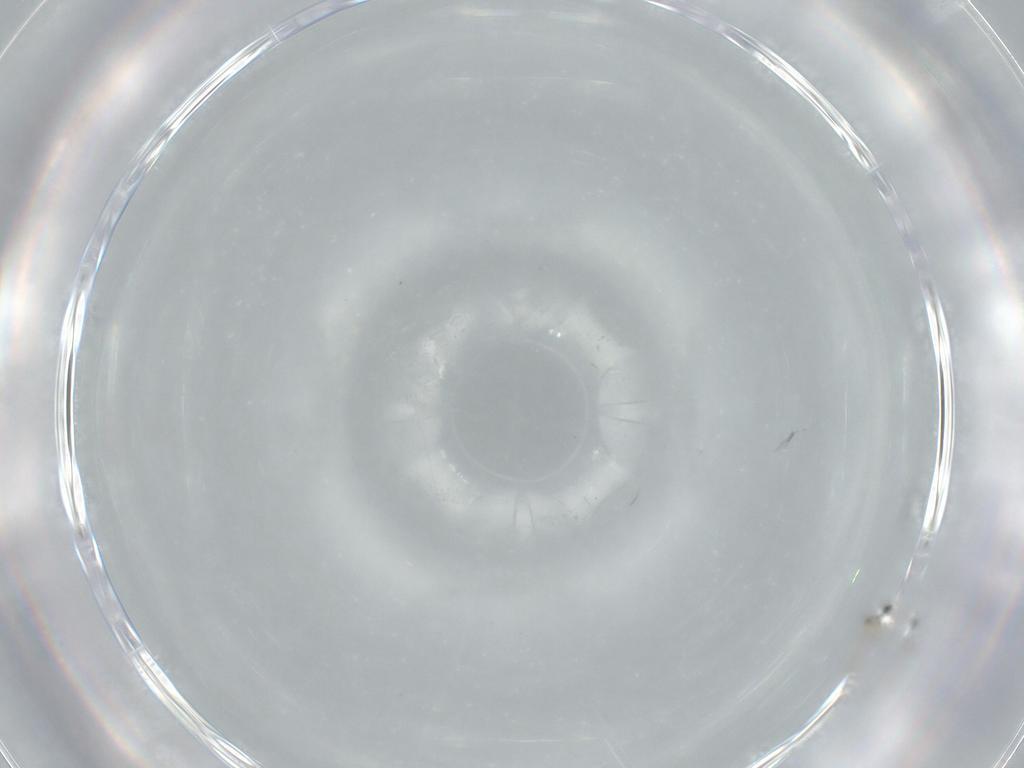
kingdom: Animalia
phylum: Arthropoda
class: Insecta
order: Diptera
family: Cecidomyiidae
